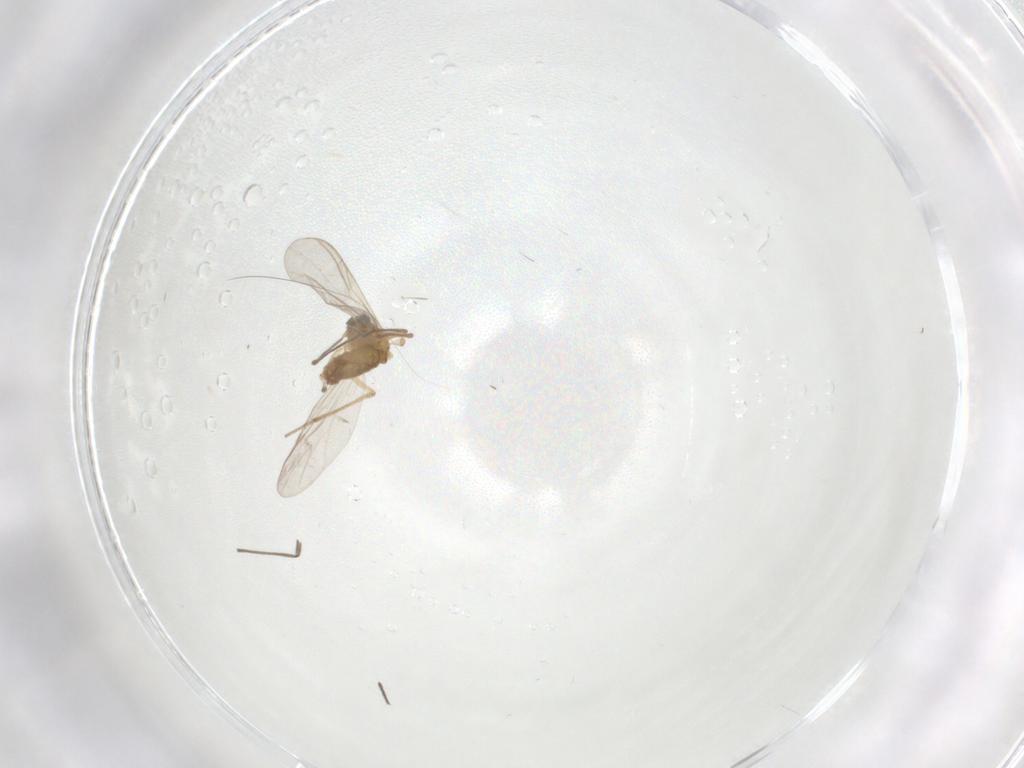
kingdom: Animalia
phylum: Arthropoda
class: Insecta
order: Diptera
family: Chironomidae
